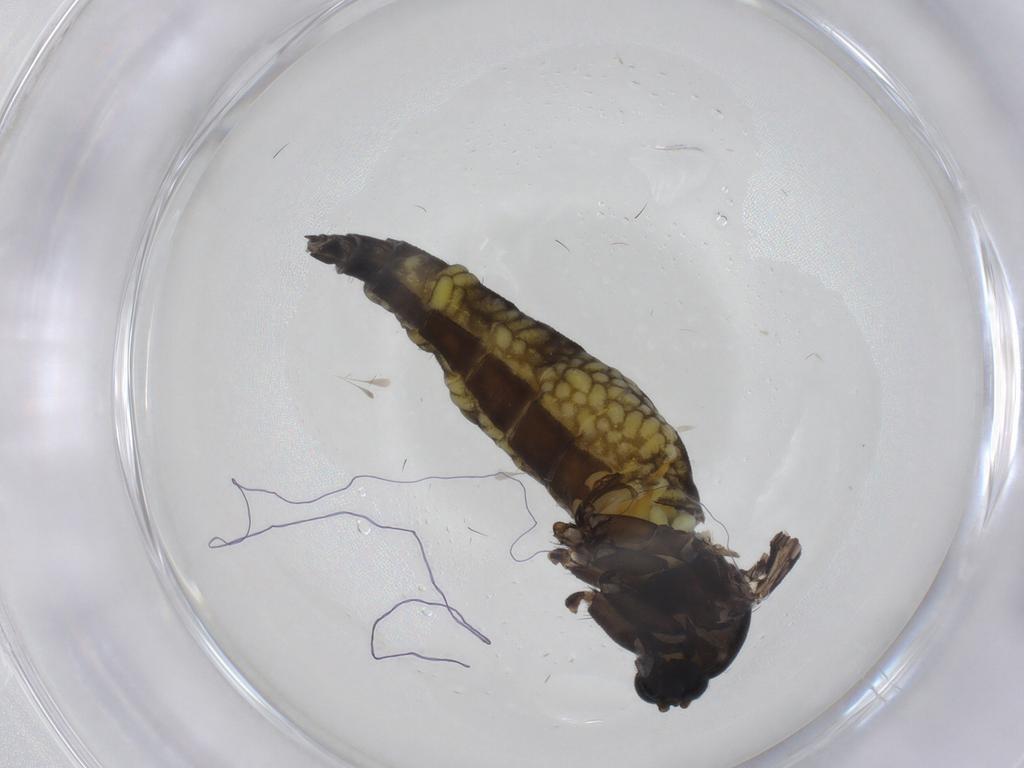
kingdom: Animalia
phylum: Arthropoda
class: Insecta
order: Diptera
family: Sciaridae
